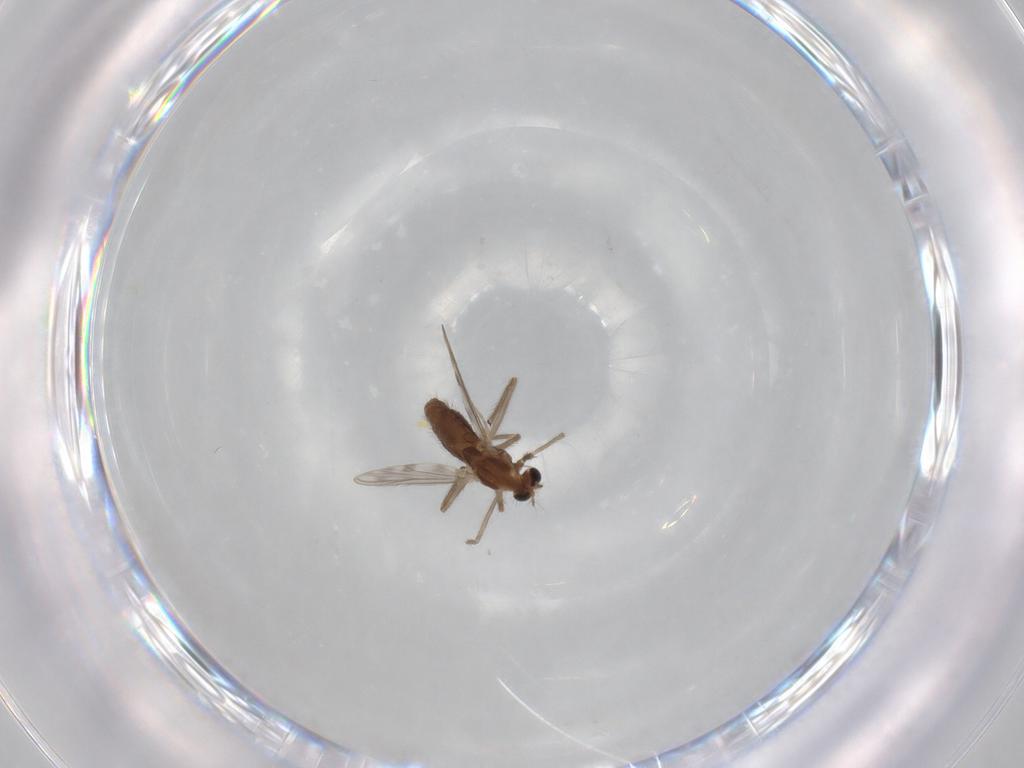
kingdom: Animalia
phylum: Arthropoda
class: Insecta
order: Diptera
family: Chironomidae
